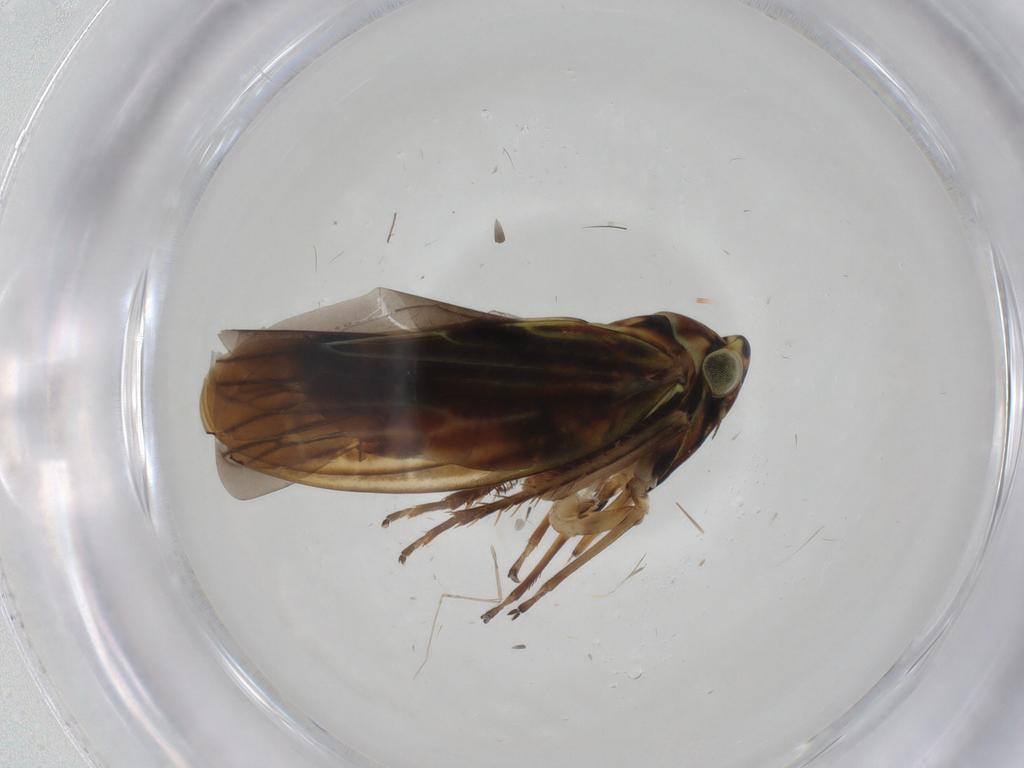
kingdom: Animalia
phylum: Arthropoda
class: Insecta
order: Hemiptera
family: Cicadellidae
